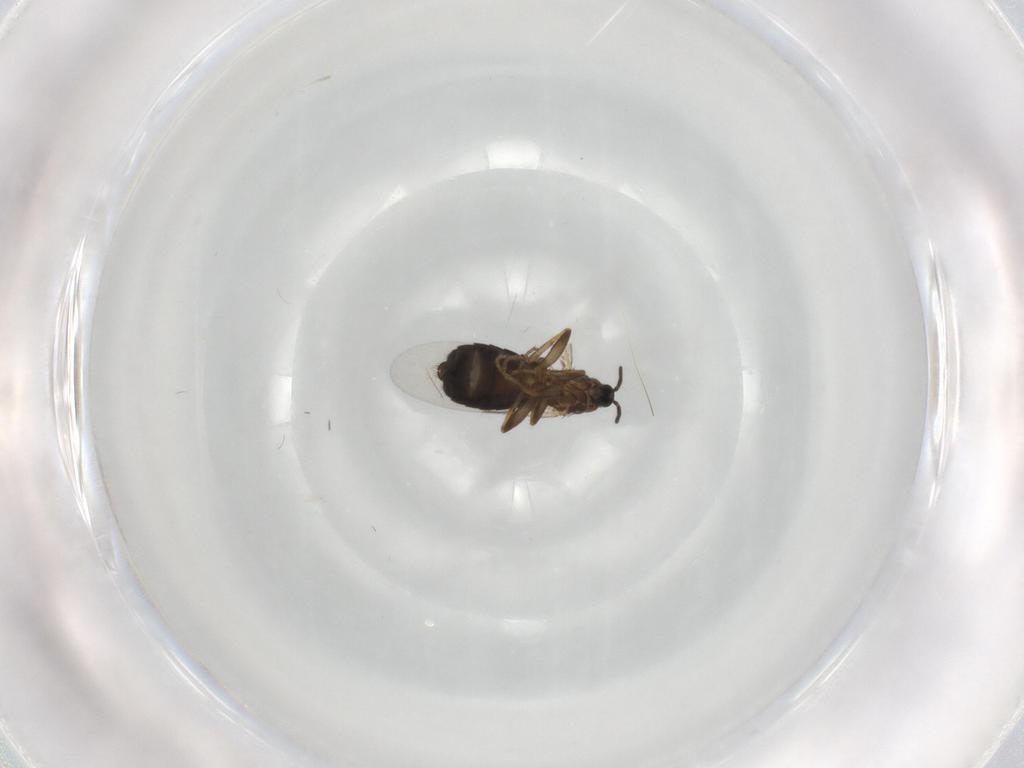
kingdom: Animalia
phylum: Arthropoda
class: Insecta
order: Diptera
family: Scatopsidae
